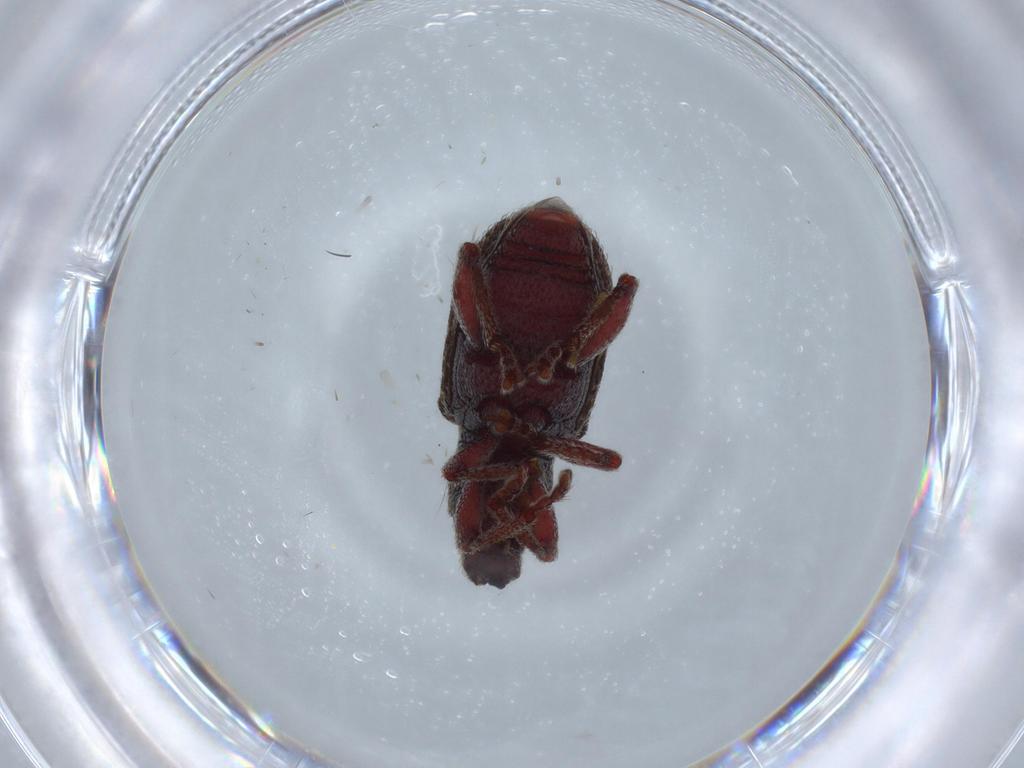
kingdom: Animalia
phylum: Arthropoda
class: Insecta
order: Coleoptera
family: Curculionidae
